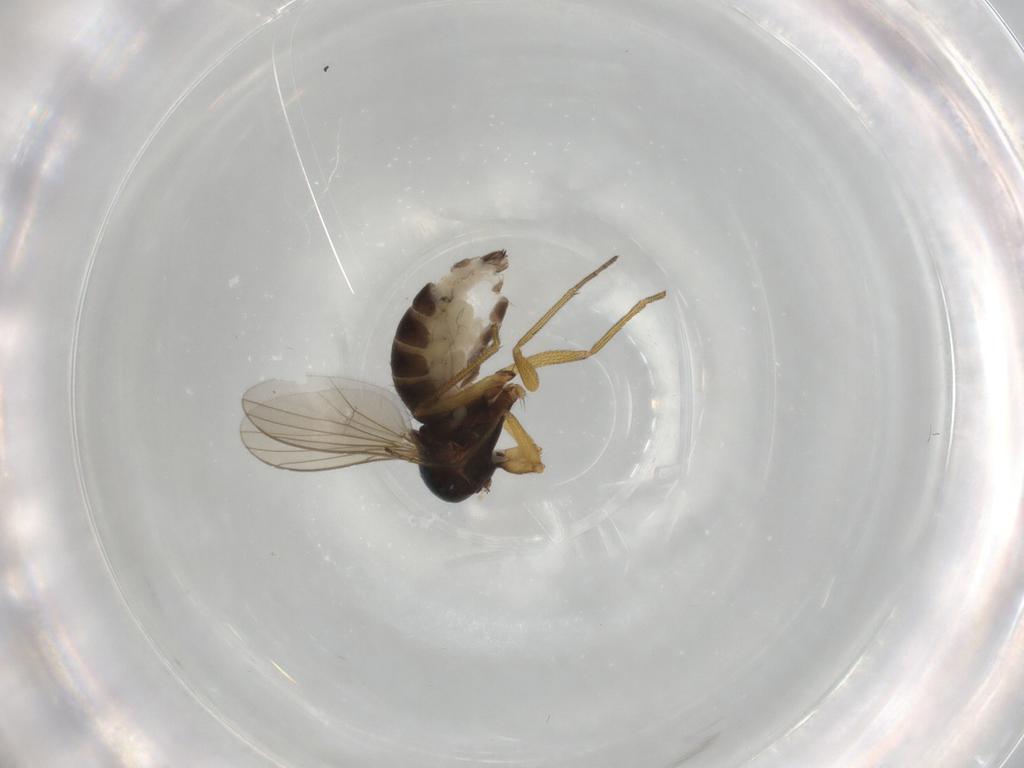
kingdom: Animalia
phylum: Arthropoda
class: Insecta
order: Diptera
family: Dolichopodidae
